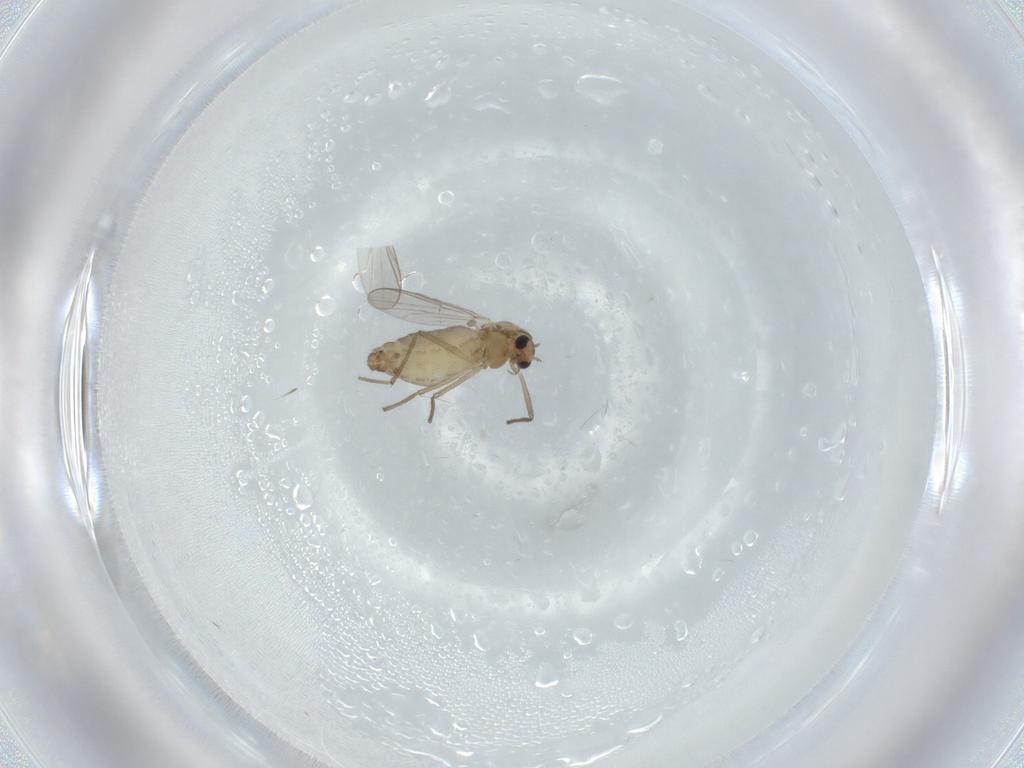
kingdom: Animalia
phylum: Arthropoda
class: Insecta
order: Diptera
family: Chironomidae
